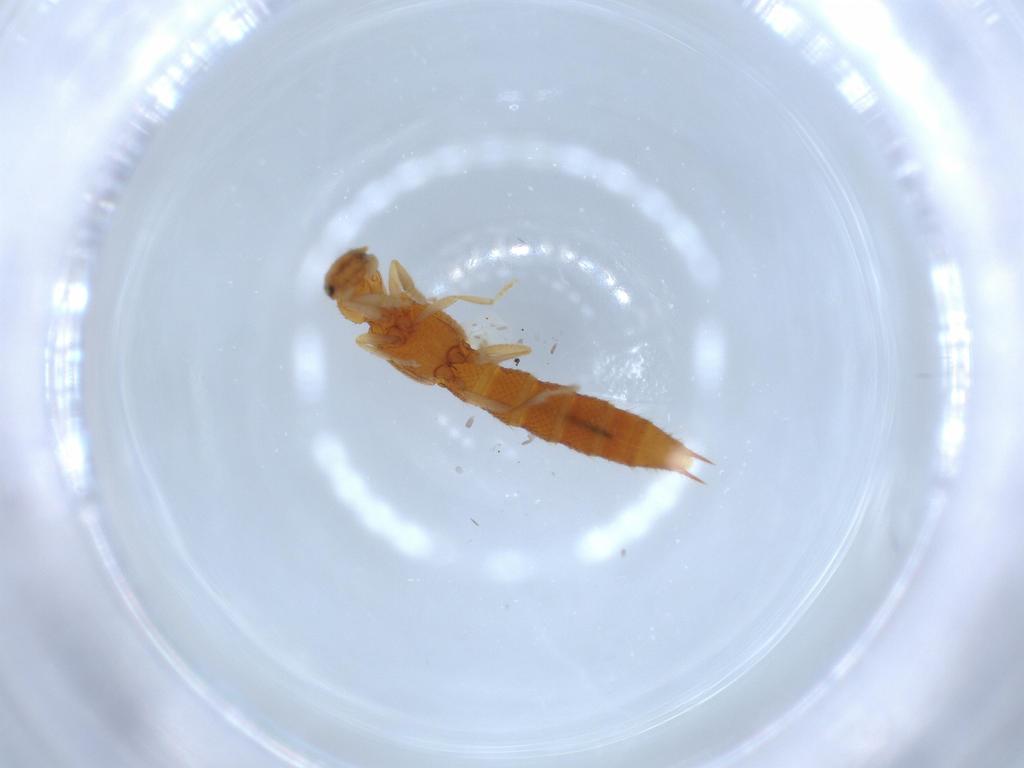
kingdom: Animalia
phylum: Arthropoda
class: Insecta
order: Coleoptera
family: Staphylinidae
